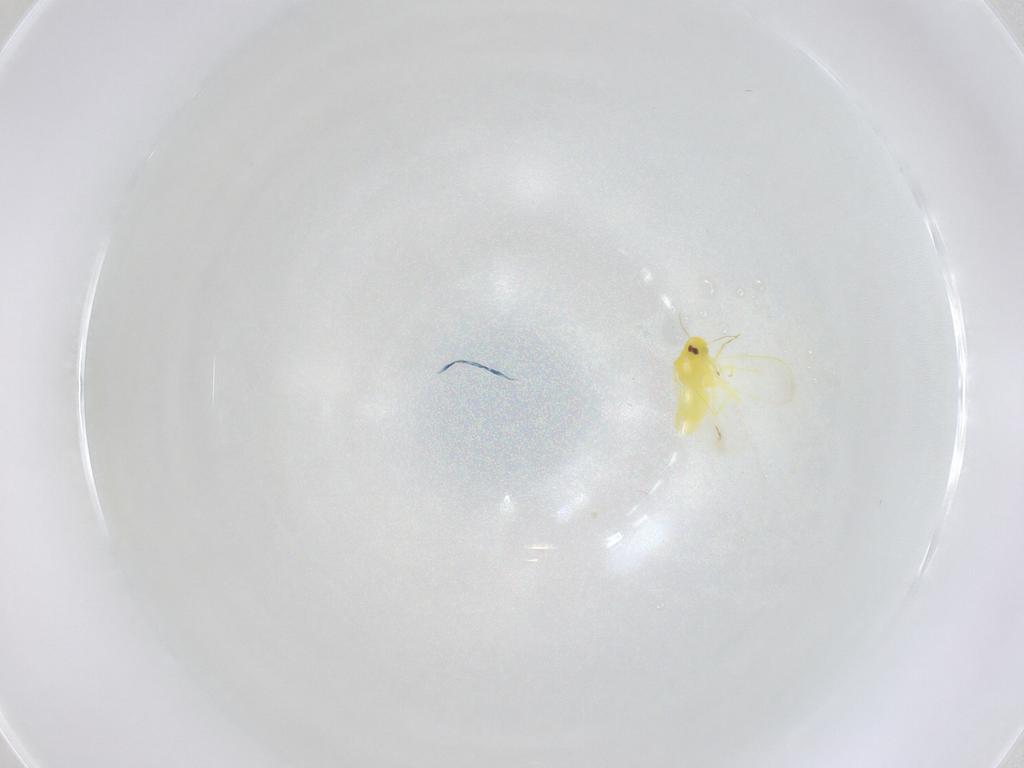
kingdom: Animalia
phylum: Arthropoda
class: Insecta
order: Hemiptera
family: Aleyrodidae
